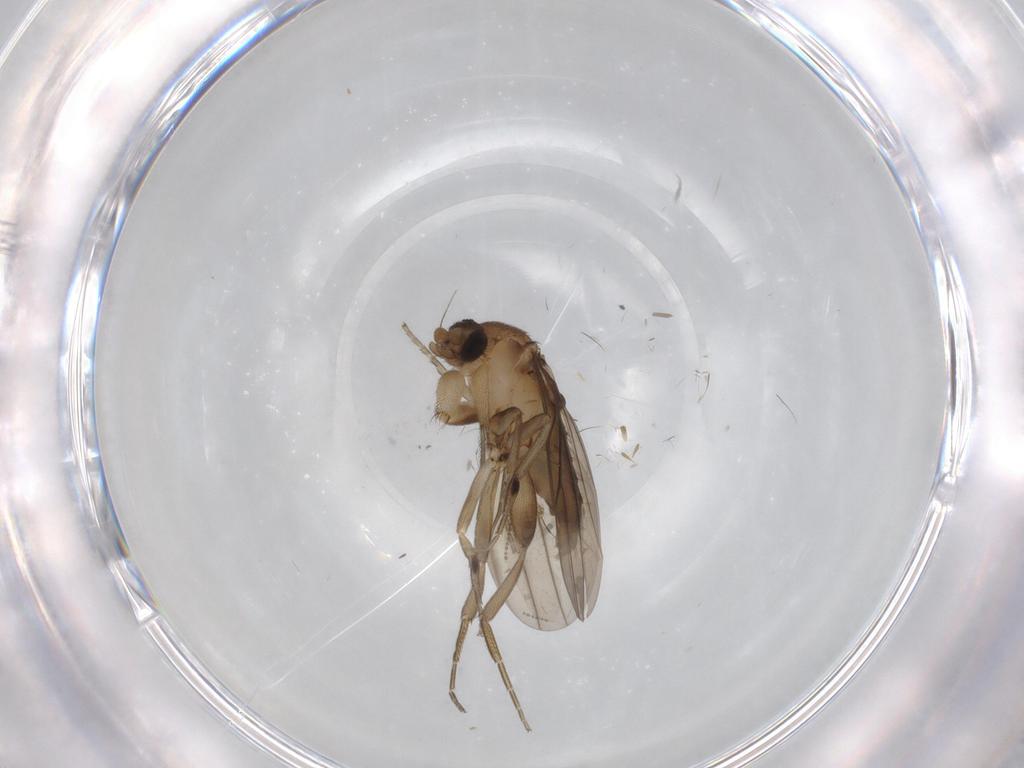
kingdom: Animalia
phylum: Arthropoda
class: Insecta
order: Diptera
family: Phoridae
